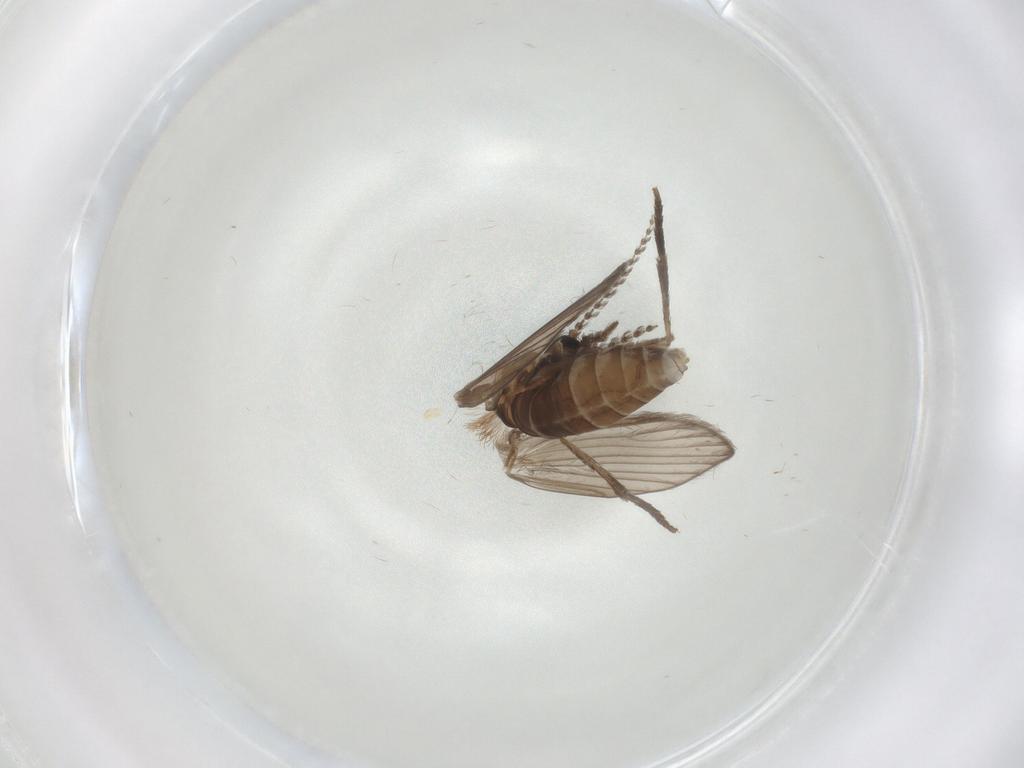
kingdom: Animalia
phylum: Arthropoda
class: Insecta
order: Diptera
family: Psychodidae
